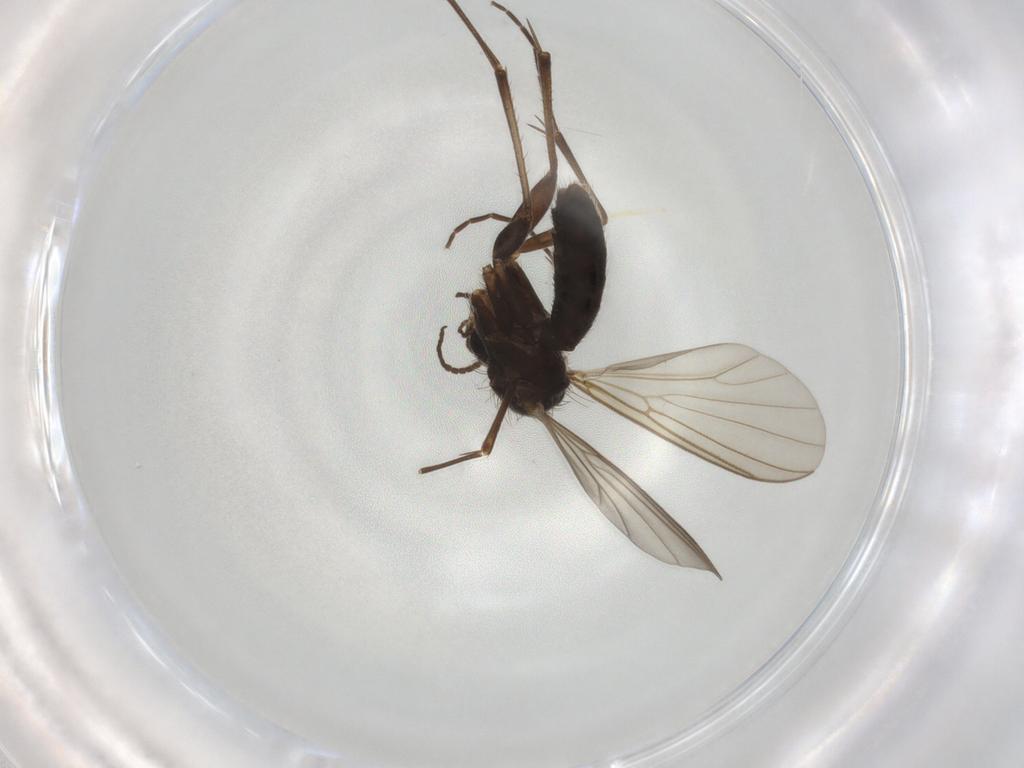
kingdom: Animalia
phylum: Arthropoda
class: Insecta
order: Diptera
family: Mycetophilidae
